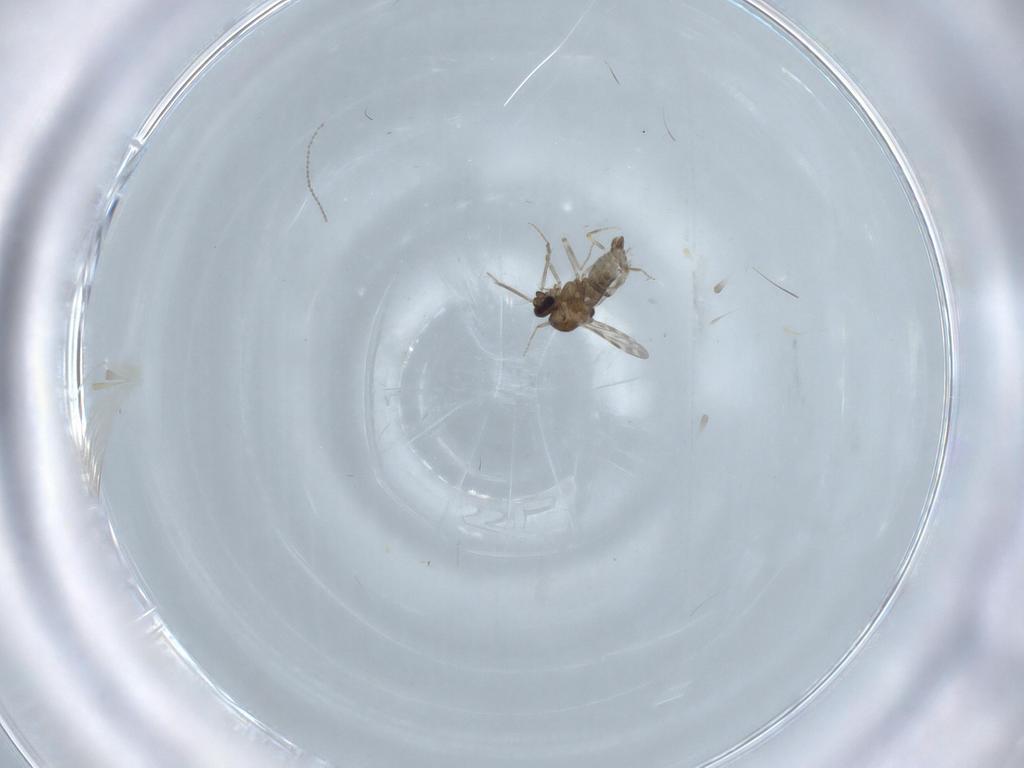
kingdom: Animalia
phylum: Arthropoda
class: Insecta
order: Diptera
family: Ceratopogonidae
